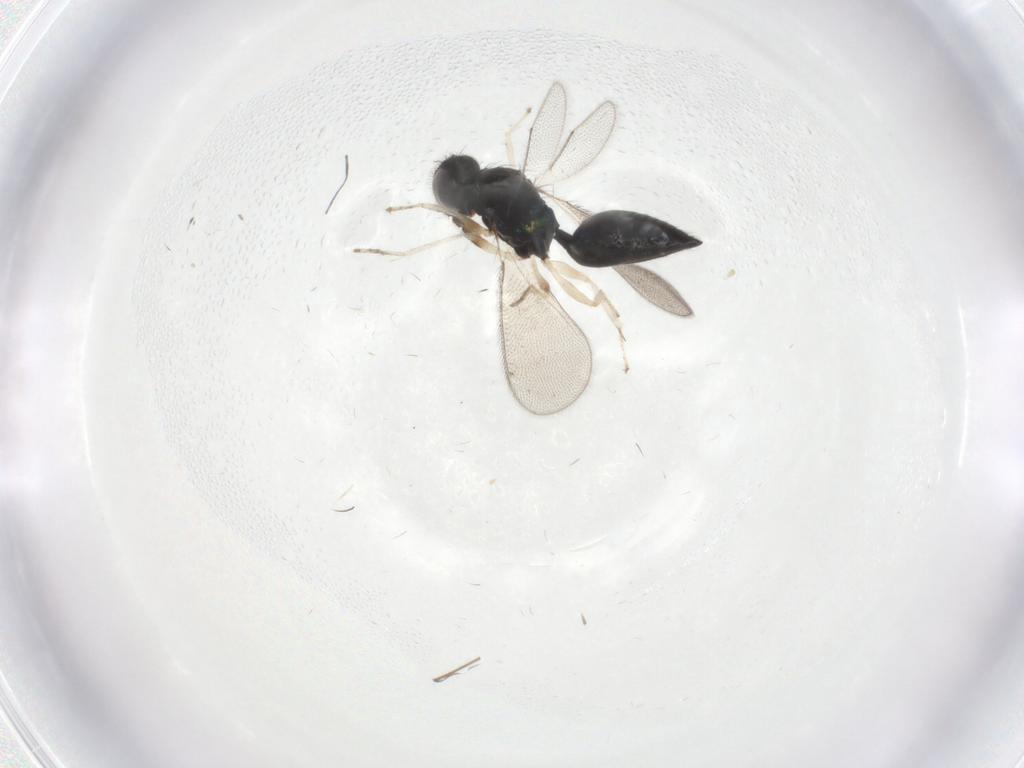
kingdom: Animalia
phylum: Arthropoda
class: Insecta
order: Hymenoptera
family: Eulophidae
